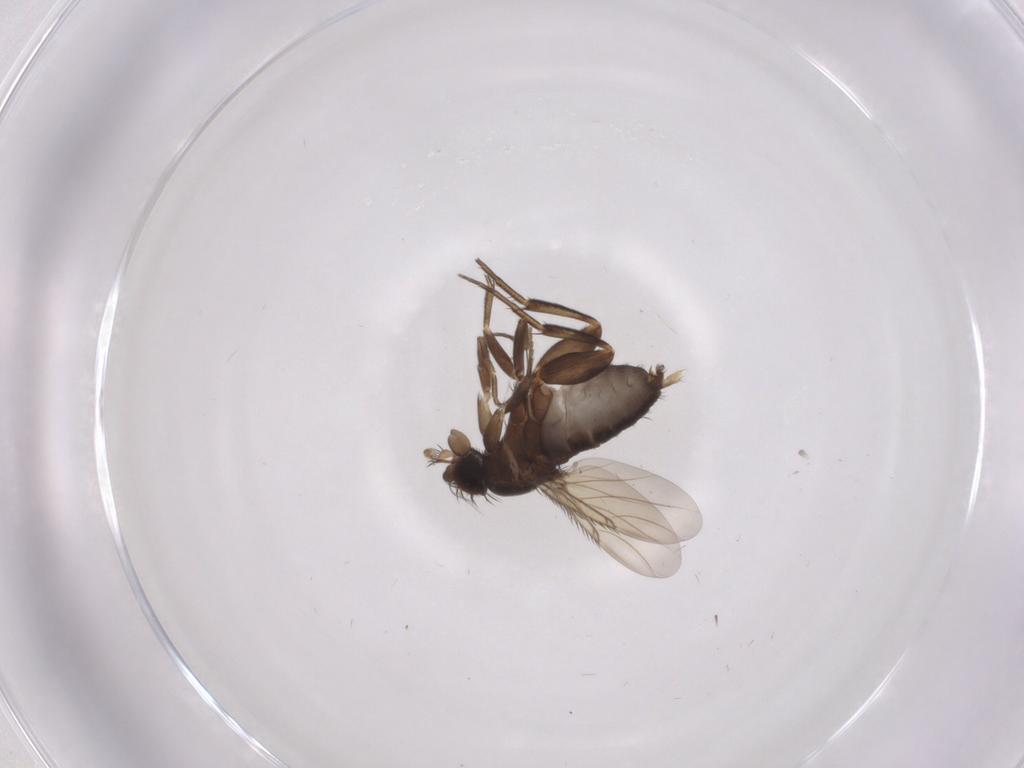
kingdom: Animalia
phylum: Arthropoda
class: Insecta
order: Diptera
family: Phoridae
